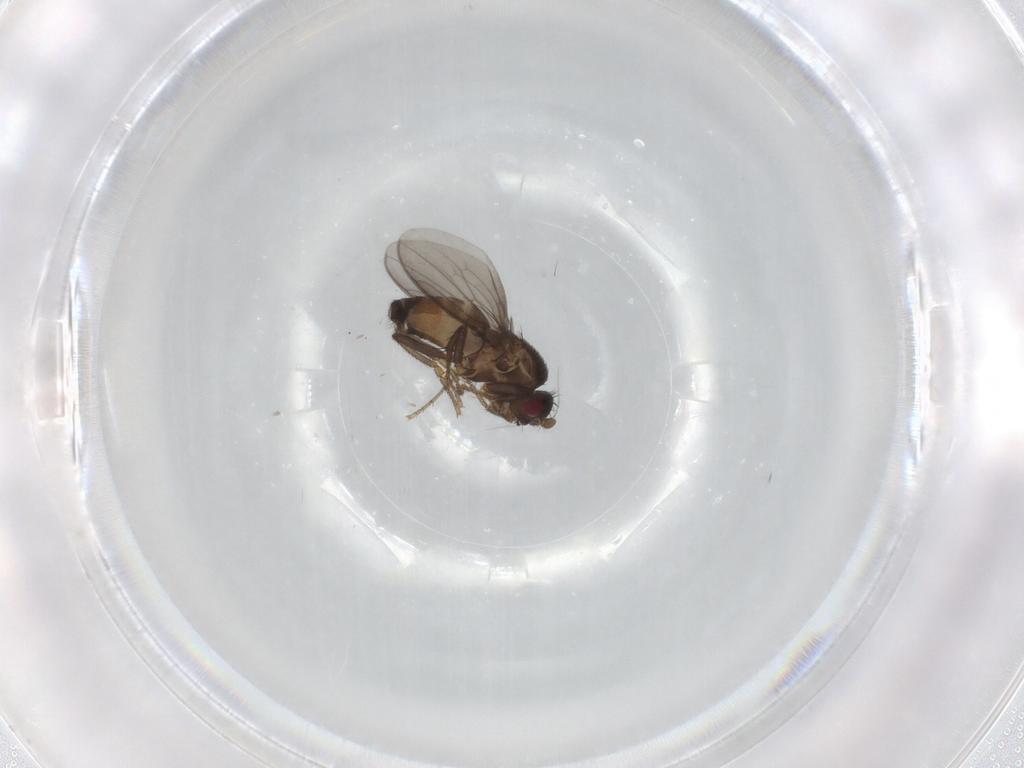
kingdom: Animalia
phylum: Arthropoda
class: Insecta
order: Diptera
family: Sphaeroceridae
